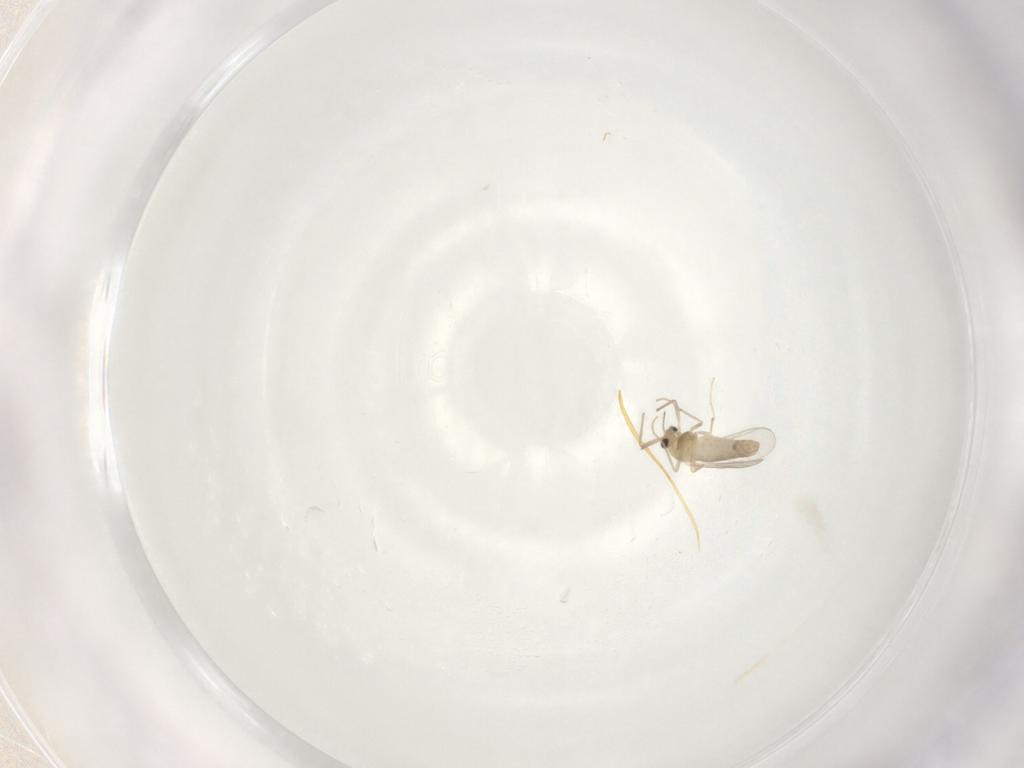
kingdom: Animalia
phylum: Arthropoda
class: Insecta
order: Diptera
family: Chironomidae
